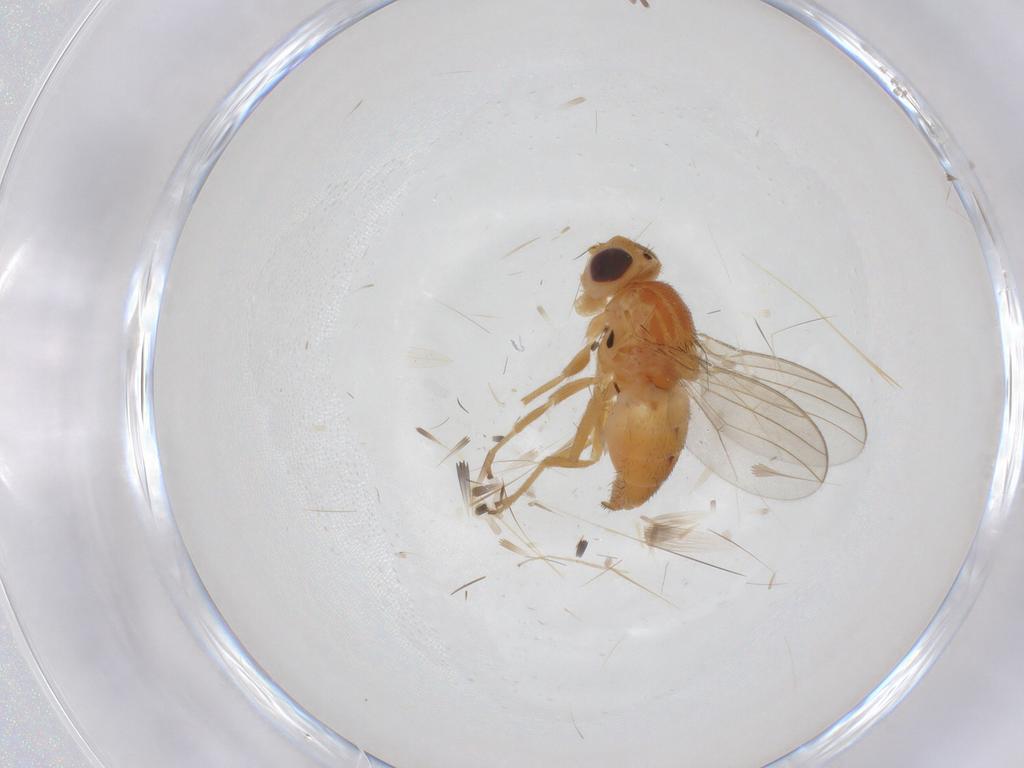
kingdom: Animalia
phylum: Arthropoda
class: Insecta
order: Diptera
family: Chloropidae
